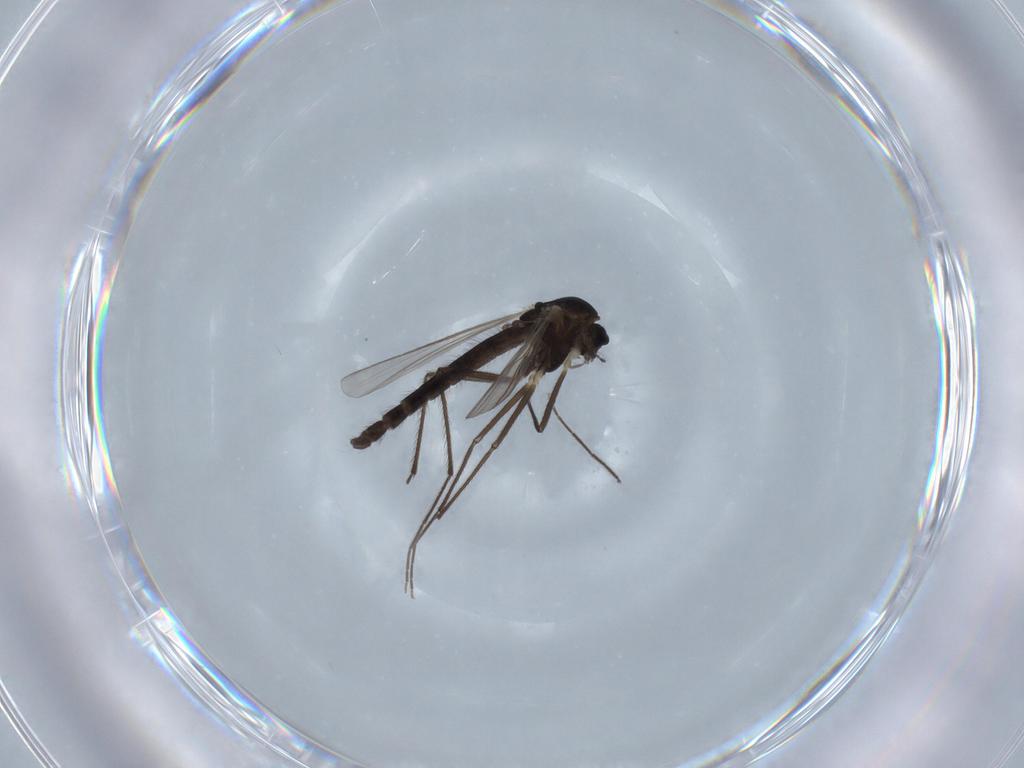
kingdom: Animalia
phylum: Arthropoda
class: Insecta
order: Diptera
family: Chironomidae
